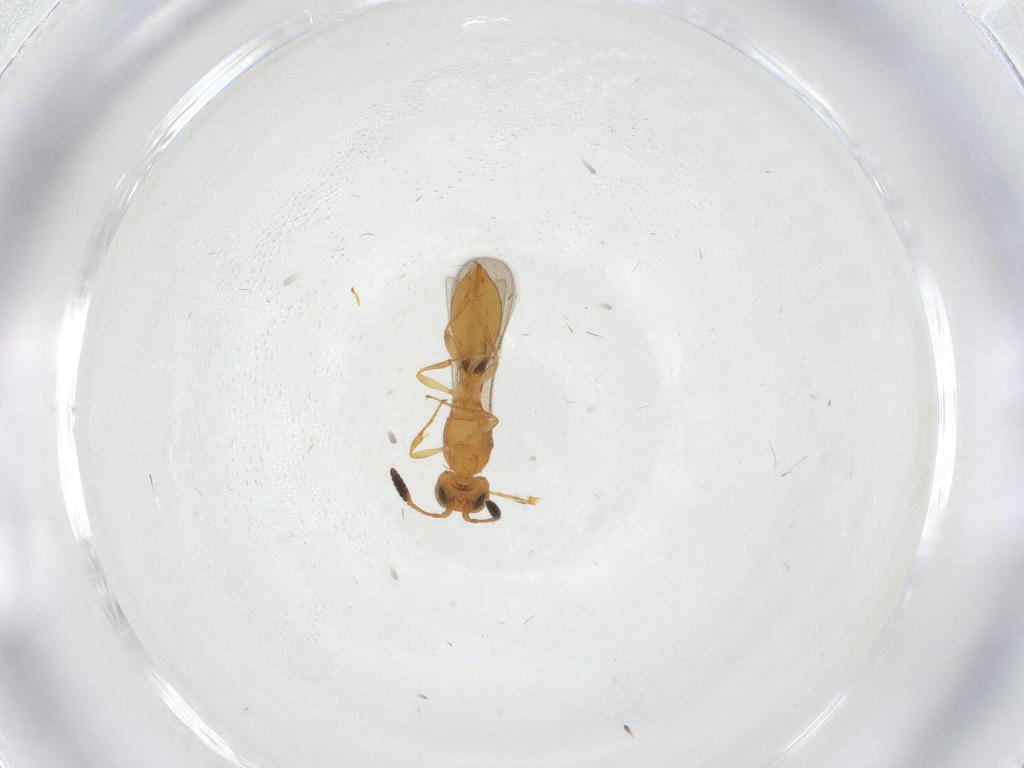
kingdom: Animalia
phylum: Arthropoda
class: Insecta
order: Hymenoptera
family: Scelionidae
